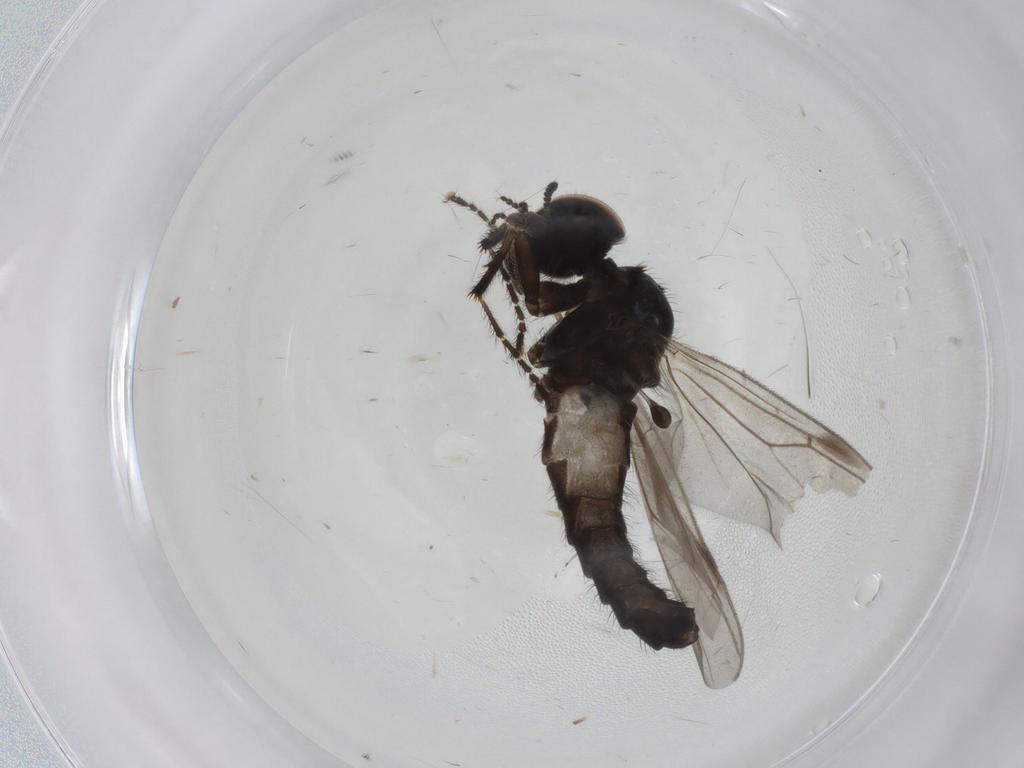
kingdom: Animalia
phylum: Arthropoda
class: Insecta
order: Diptera
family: Bibionidae
